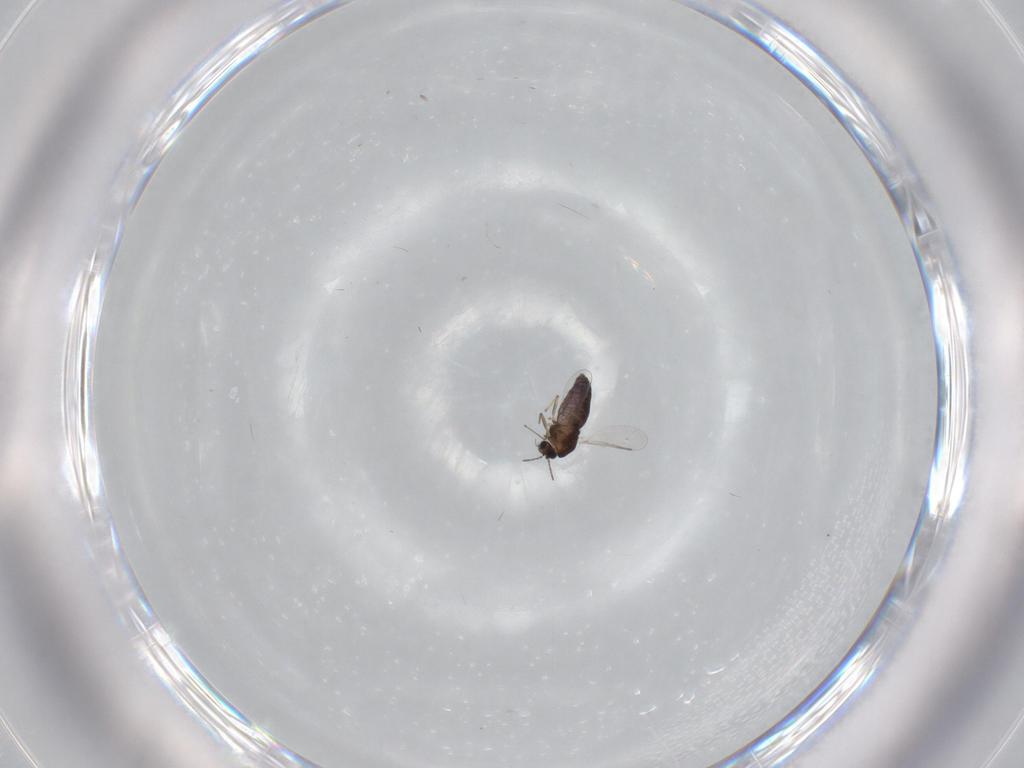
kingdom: Animalia
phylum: Arthropoda
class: Insecta
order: Diptera
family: Chironomidae
